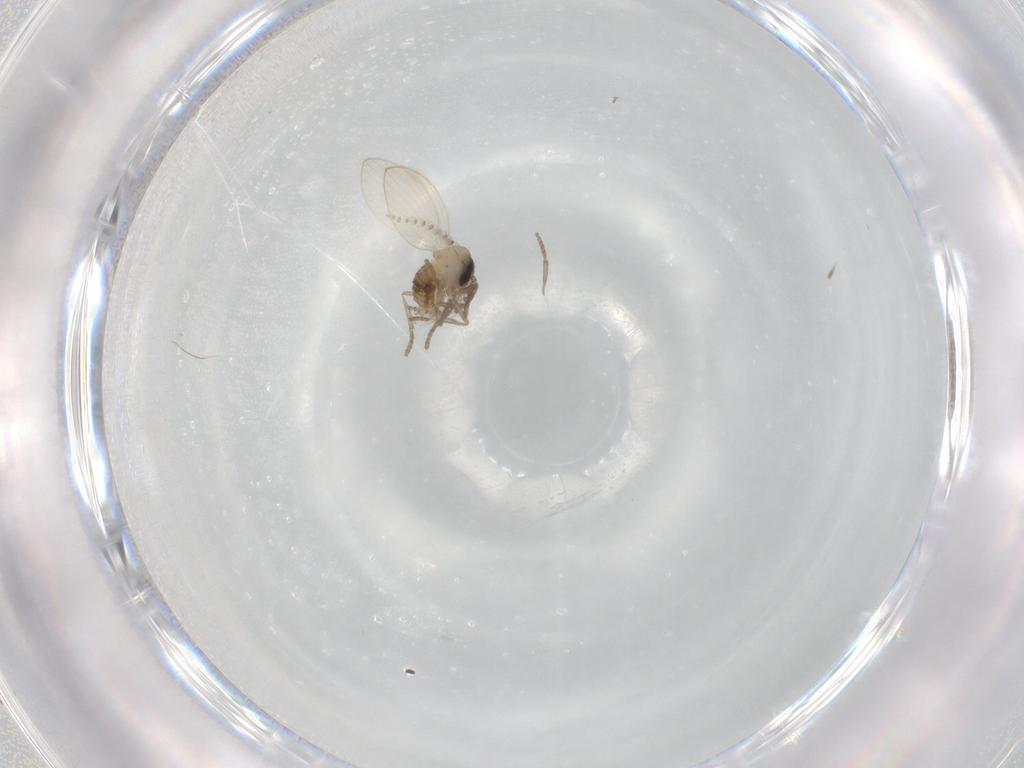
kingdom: Animalia
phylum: Arthropoda
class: Insecta
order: Diptera
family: Psychodidae
